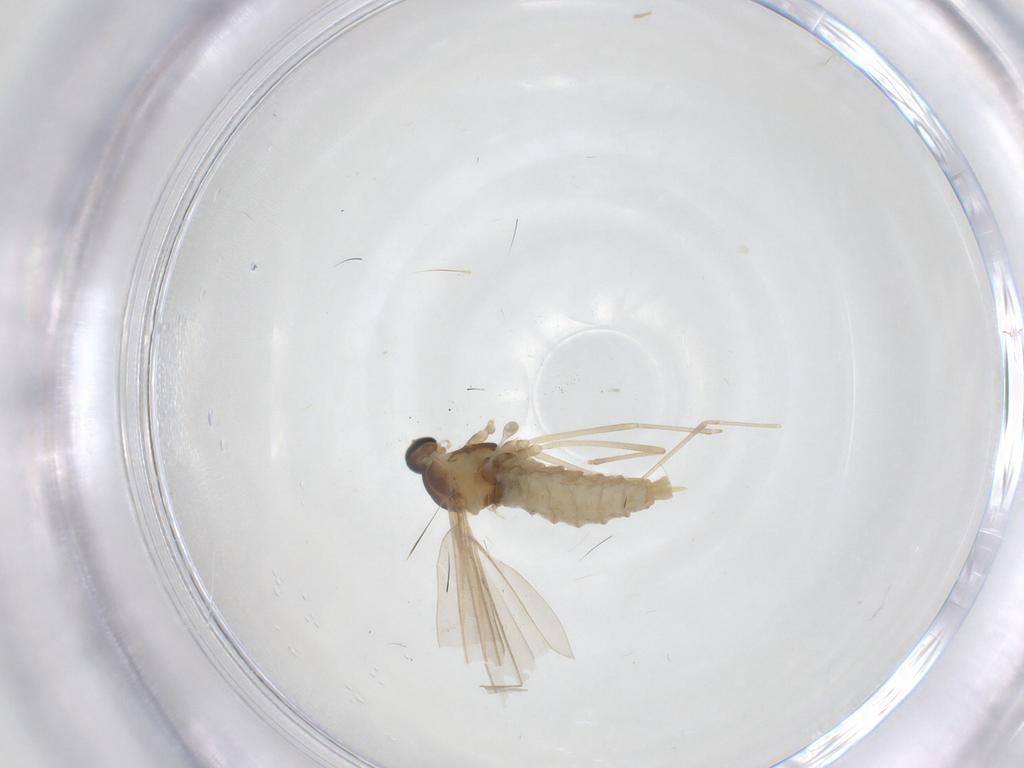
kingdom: Animalia
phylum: Arthropoda
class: Insecta
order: Diptera
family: Cecidomyiidae
